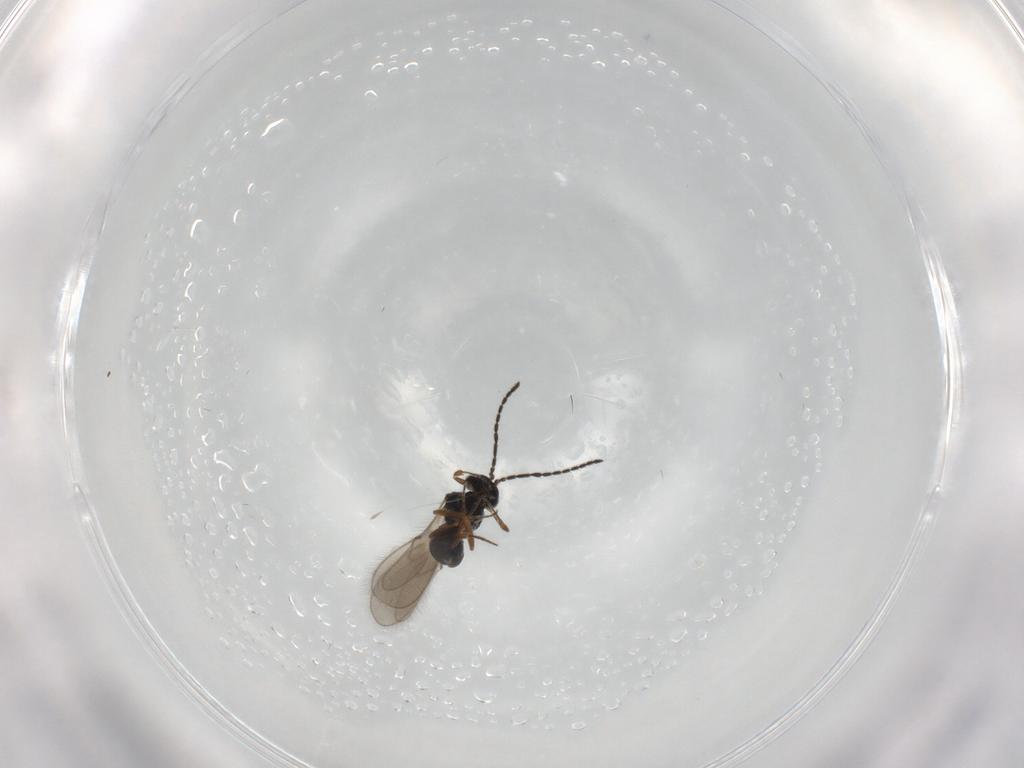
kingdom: Animalia
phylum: Arthropoda
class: Insecta
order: Hymenoptera
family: Scelionidae
